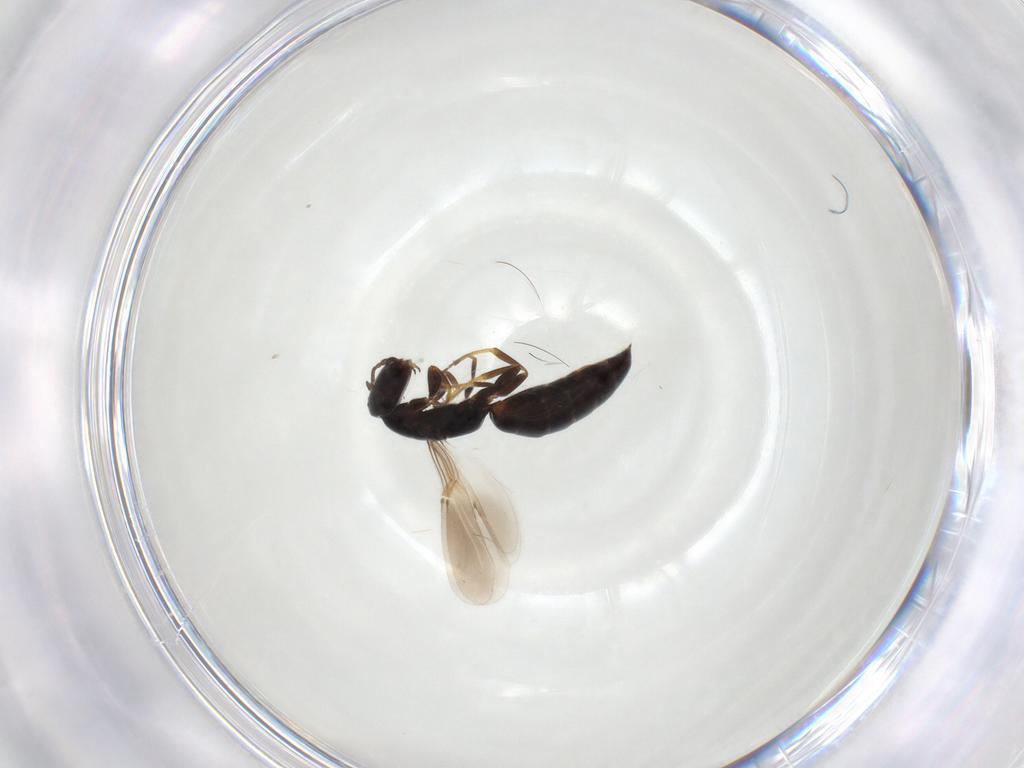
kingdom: Animalia
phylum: Arthropoda
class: Insecta
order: Hymenoptera
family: Bethylidae
